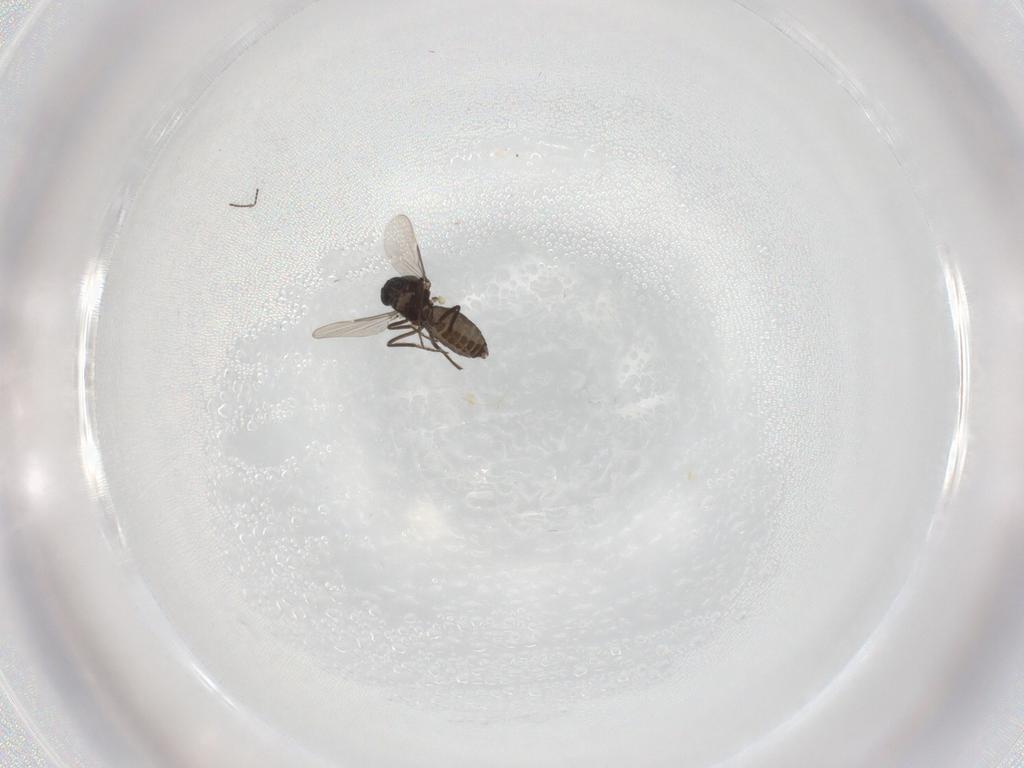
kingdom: Animalia
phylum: Arthropoda
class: Insecta
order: Diptera
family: Ceratopogonidae
